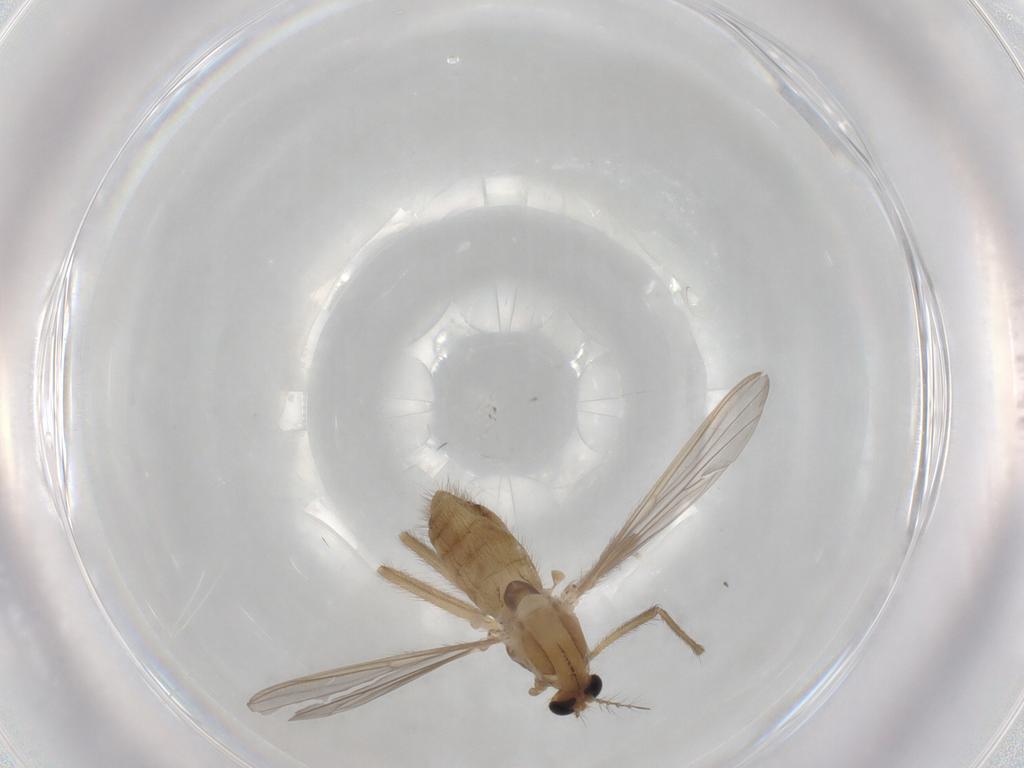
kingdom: Animalia
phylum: Arthropoda
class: Insecta
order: Diptera
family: Chironomidae
